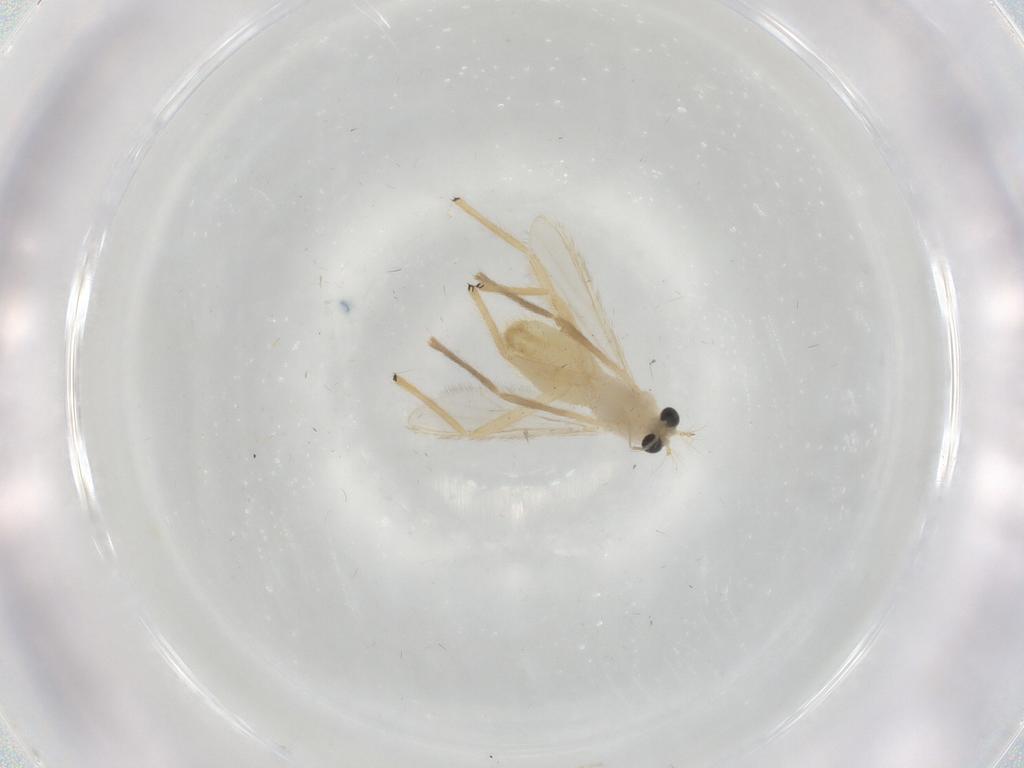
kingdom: Animalia
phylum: Arthropoda
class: Insecta
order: Diptera
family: Chironomidae
